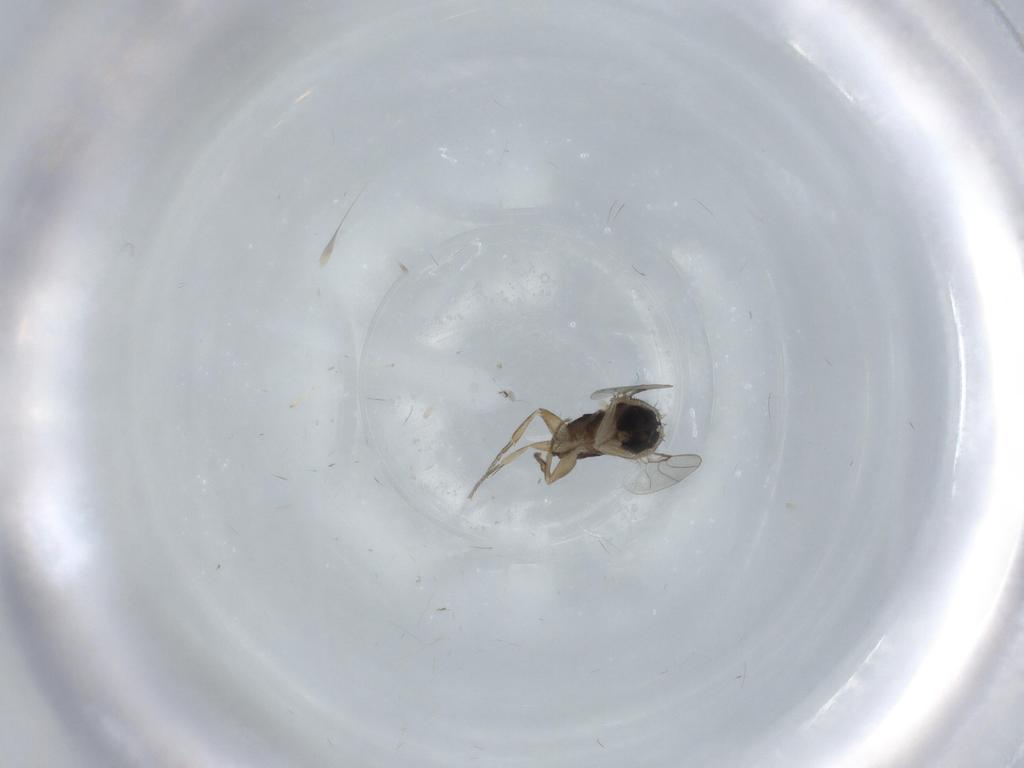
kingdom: Animalia
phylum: Arthropoda
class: Insecta
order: Diptera
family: Phoridae
